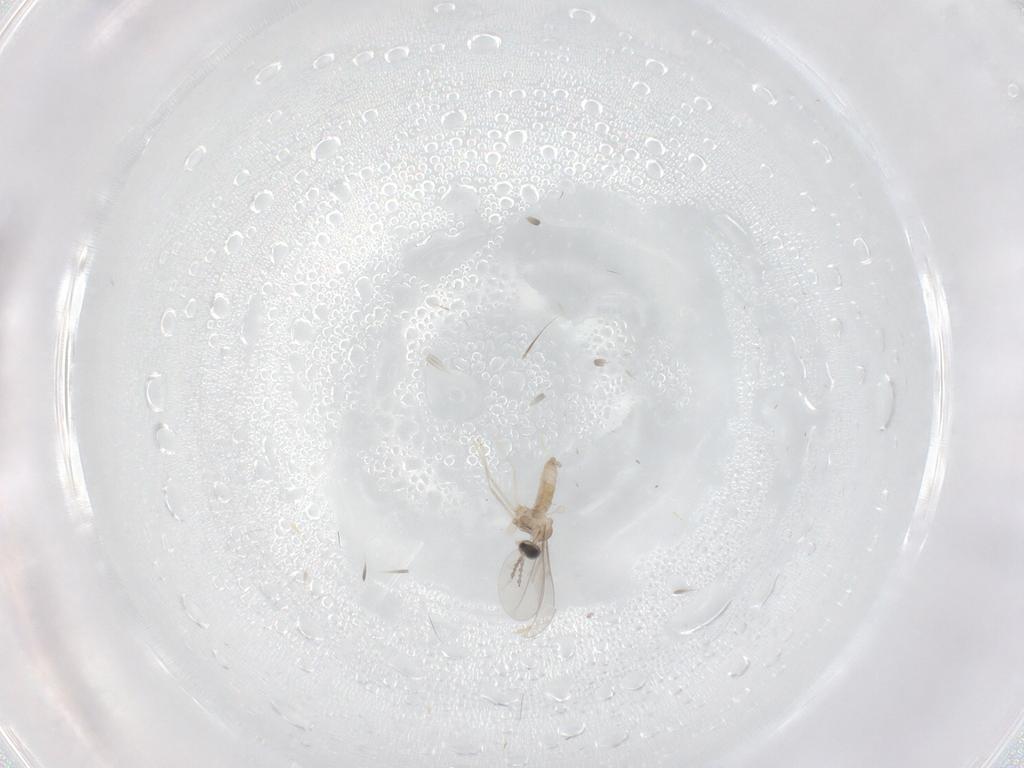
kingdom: Animalia
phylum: Arthropoda
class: Insecta
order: Diptera
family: Cecidomyiidae
